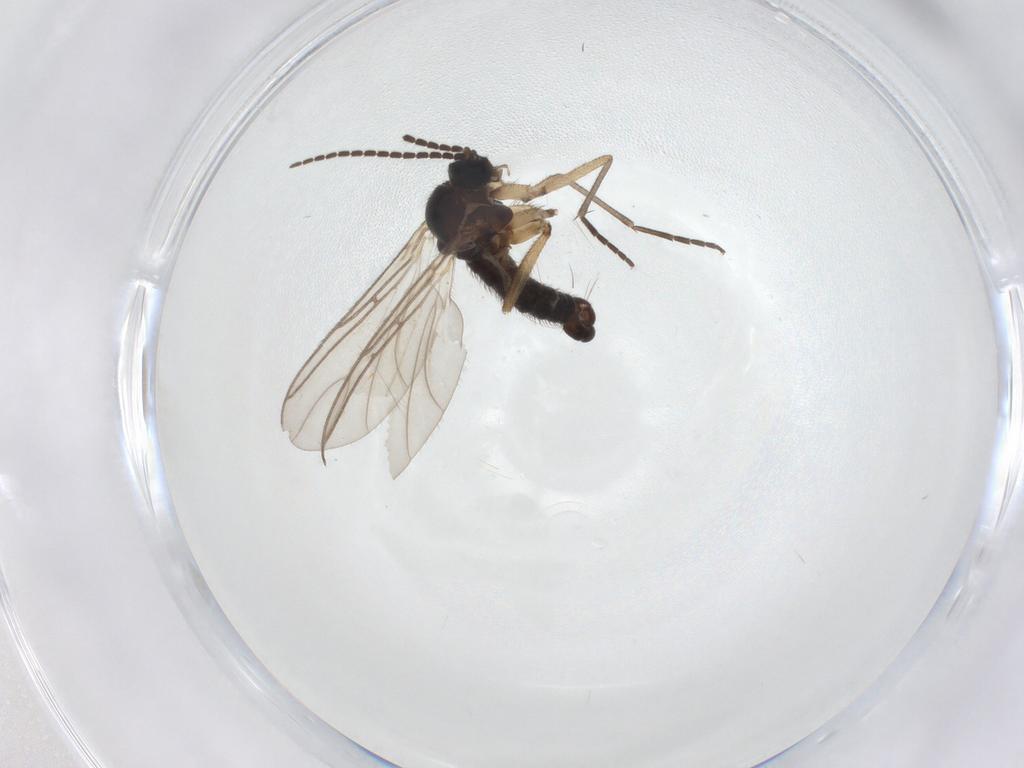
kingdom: Animalia
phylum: Arthropoda
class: Insecta
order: Diptera
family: Sciaridae
